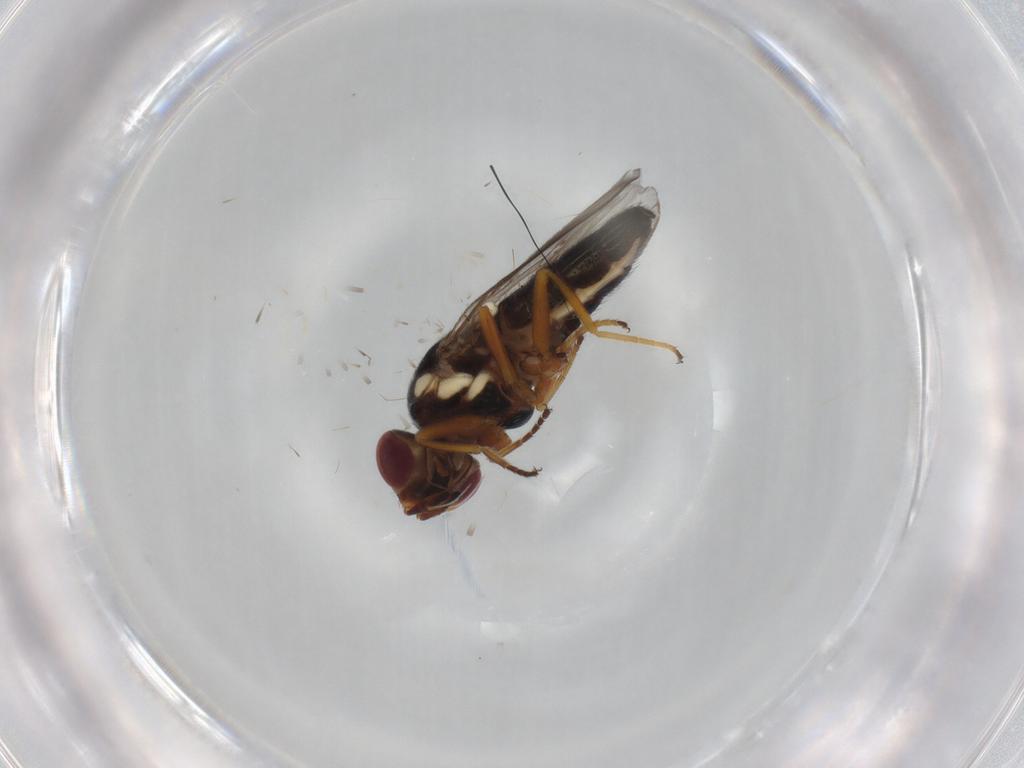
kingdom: Animalia
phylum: Arthropoda
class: Insecta
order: Diptera
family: Chloropidae
